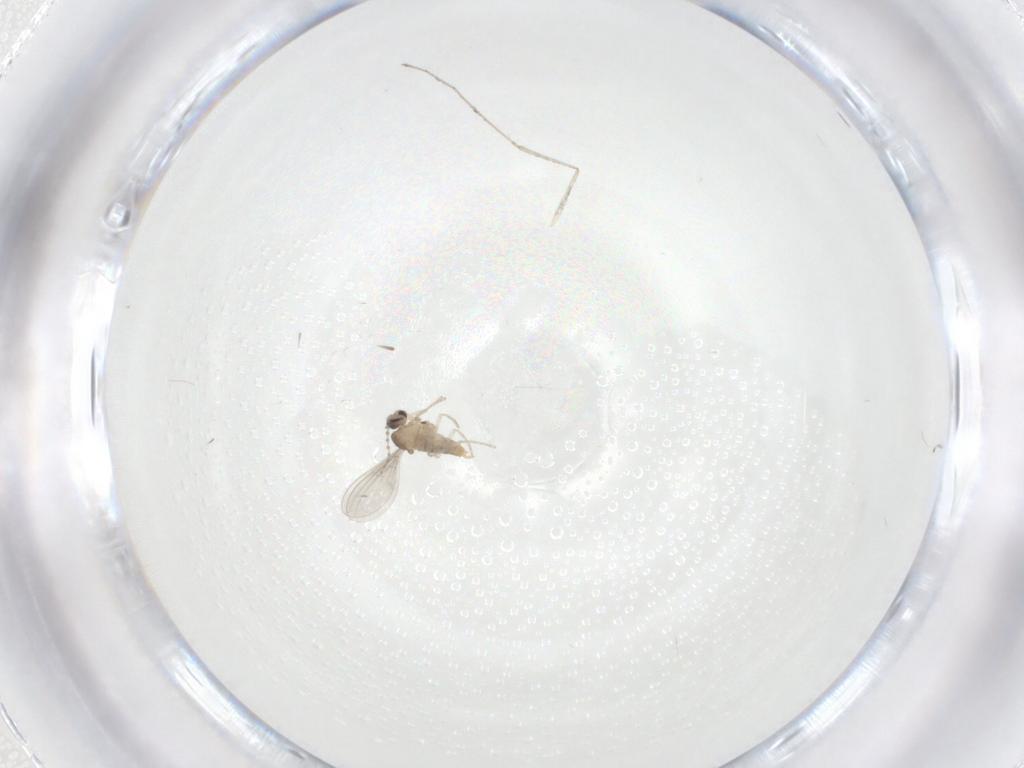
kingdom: Animalia
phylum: Arthropoda
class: Insecta
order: Diptera
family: Cecidomyiidae
